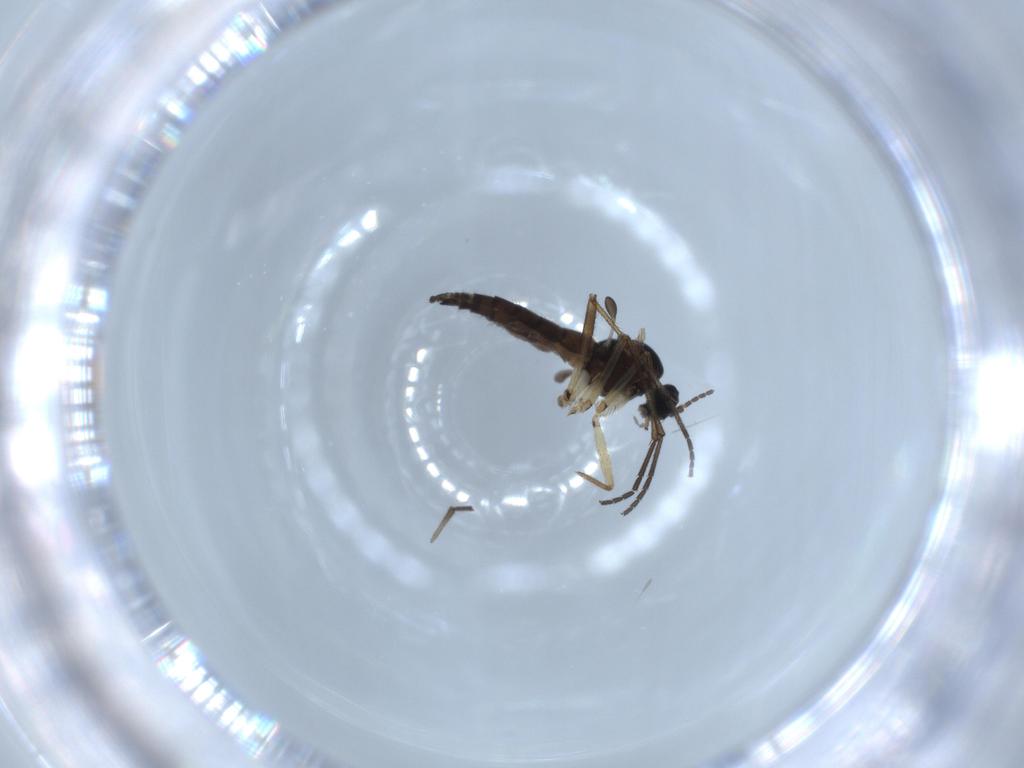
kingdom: Animalia
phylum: Arthropoda
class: Insecta
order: Diptera
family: Sciaridae
